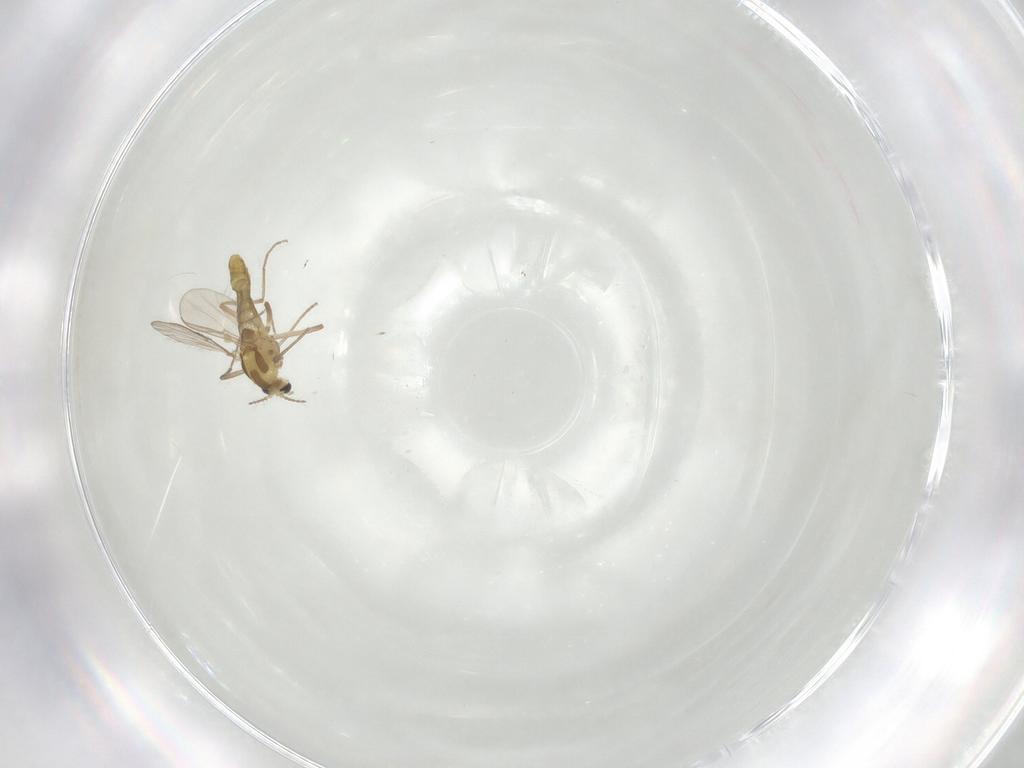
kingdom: Animalia
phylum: Arthropoda
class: Insecta
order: Diptera
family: Chironomidae
